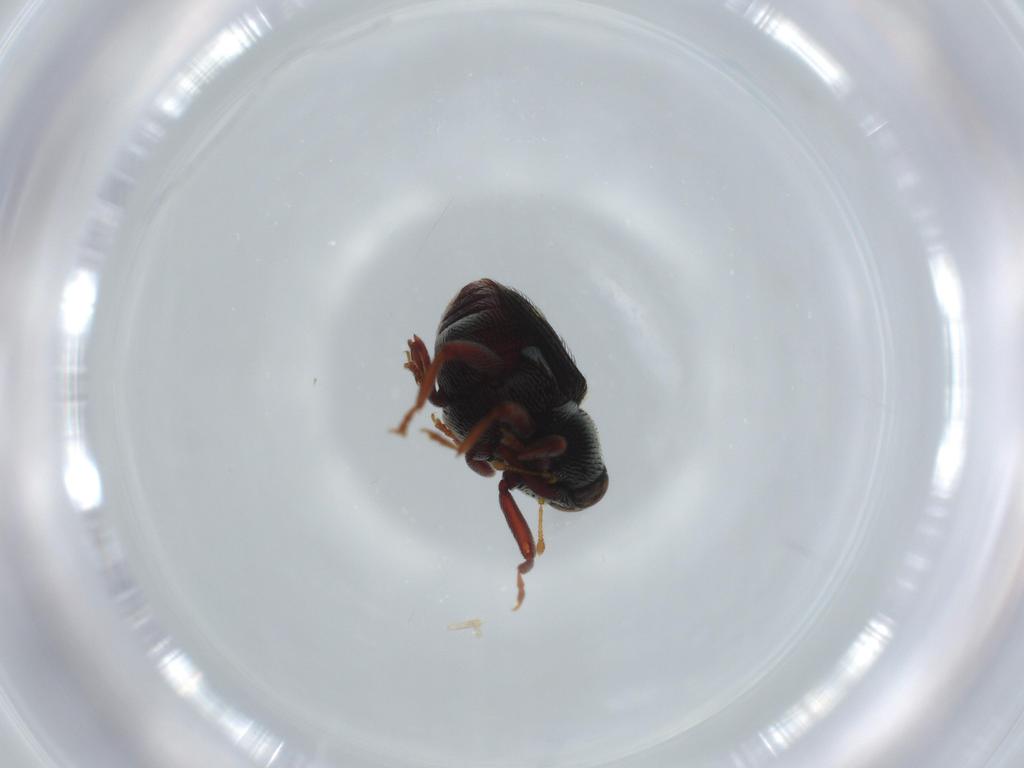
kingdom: Animalia
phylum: Arthropoda
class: Insecta
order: Coleoptera
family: Curculionidae
